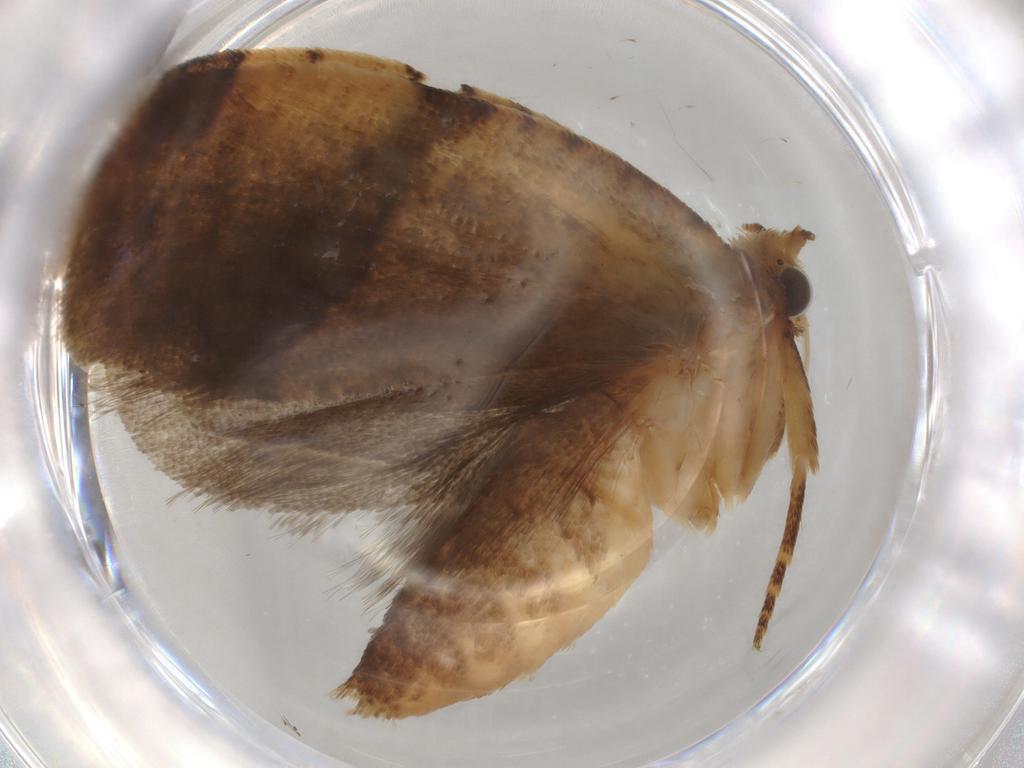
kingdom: Animalia
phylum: Arthropoda
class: Insecta
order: Lepidoptera
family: Tortricidae
